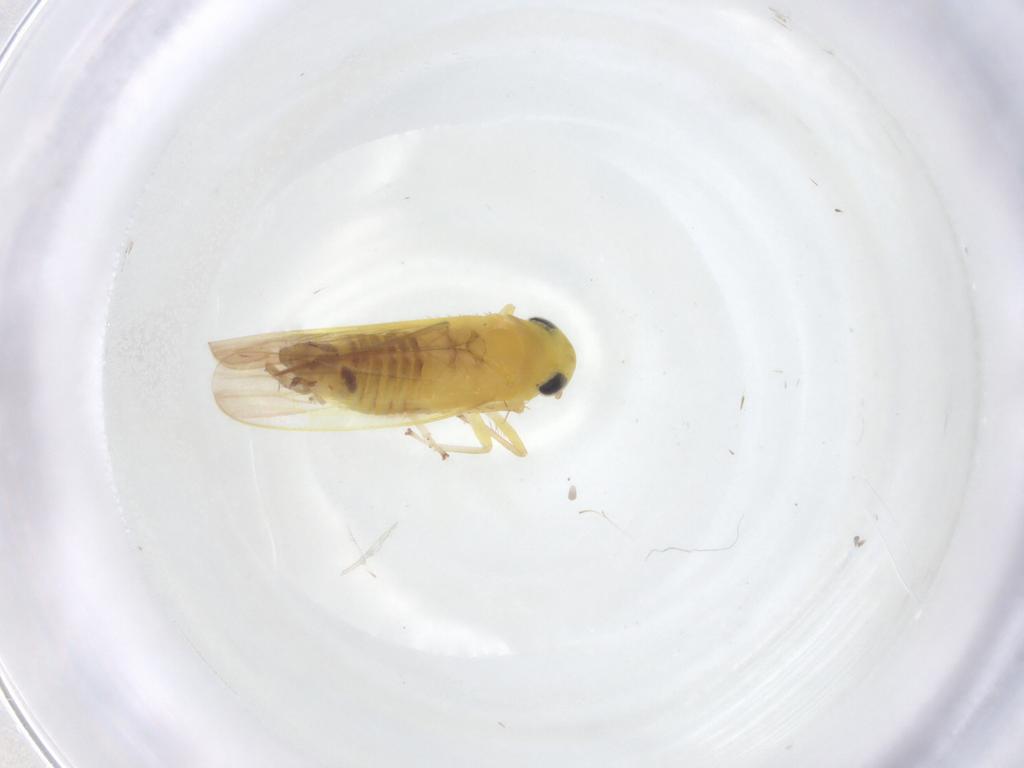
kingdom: Animalia
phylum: Arthropoda
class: Insecta
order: Hemiptera
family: Cicadellidae
